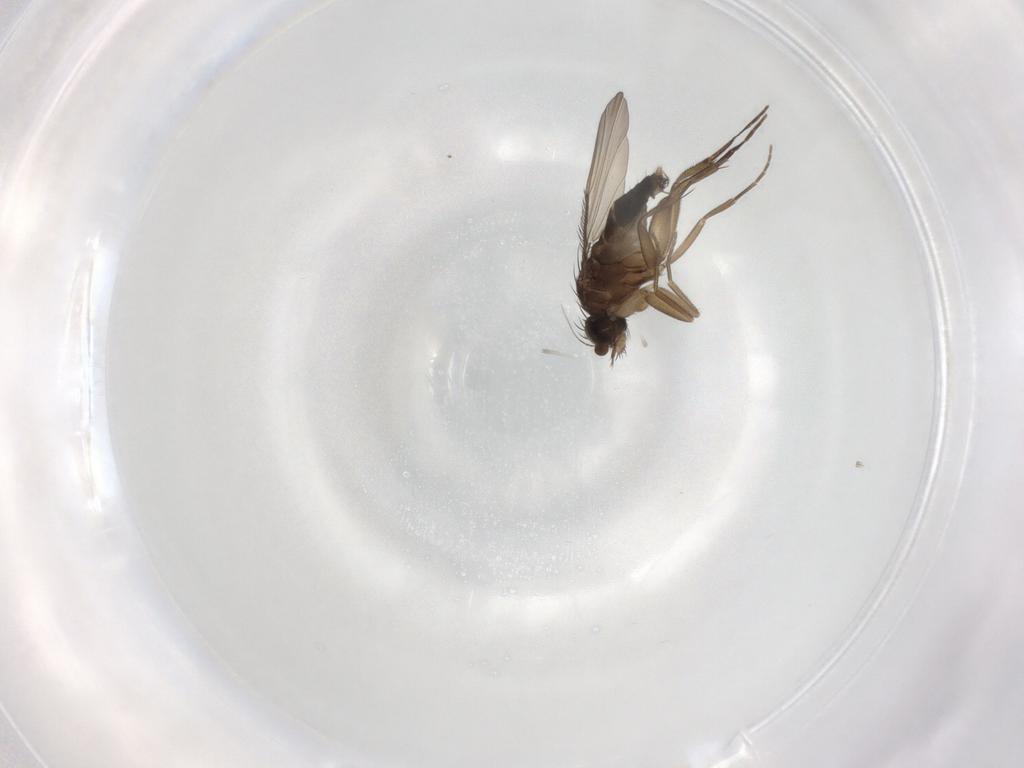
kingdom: Animalia
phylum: Arthropoda
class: Insecta
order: Diptera
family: Phoridae
